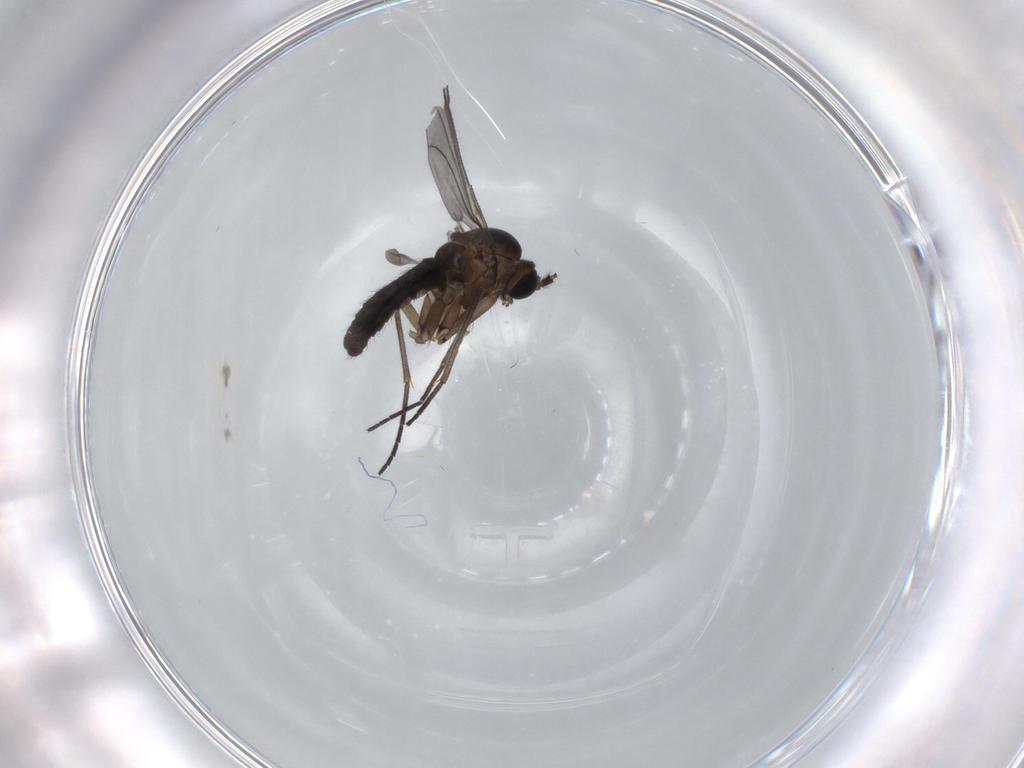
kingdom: Animalia
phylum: Arthropoda
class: Insecta
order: Diptera
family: Sciaridae
